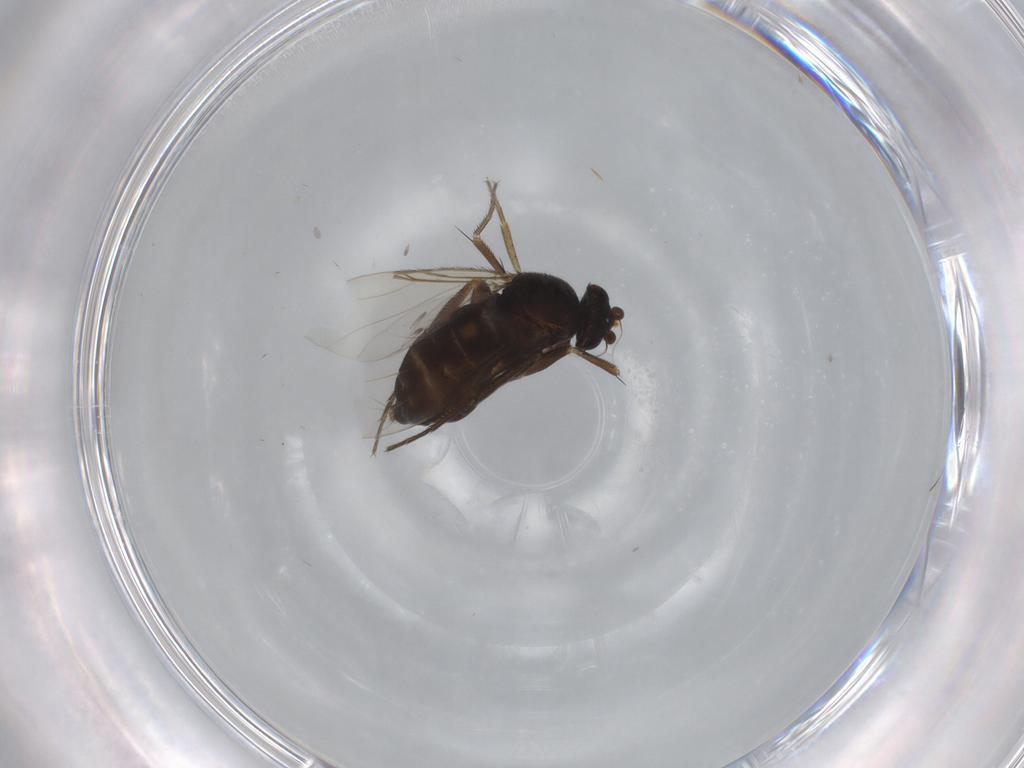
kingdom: Animalia
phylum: Arthropoda
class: Insecta
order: Diptera
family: Phoridae
